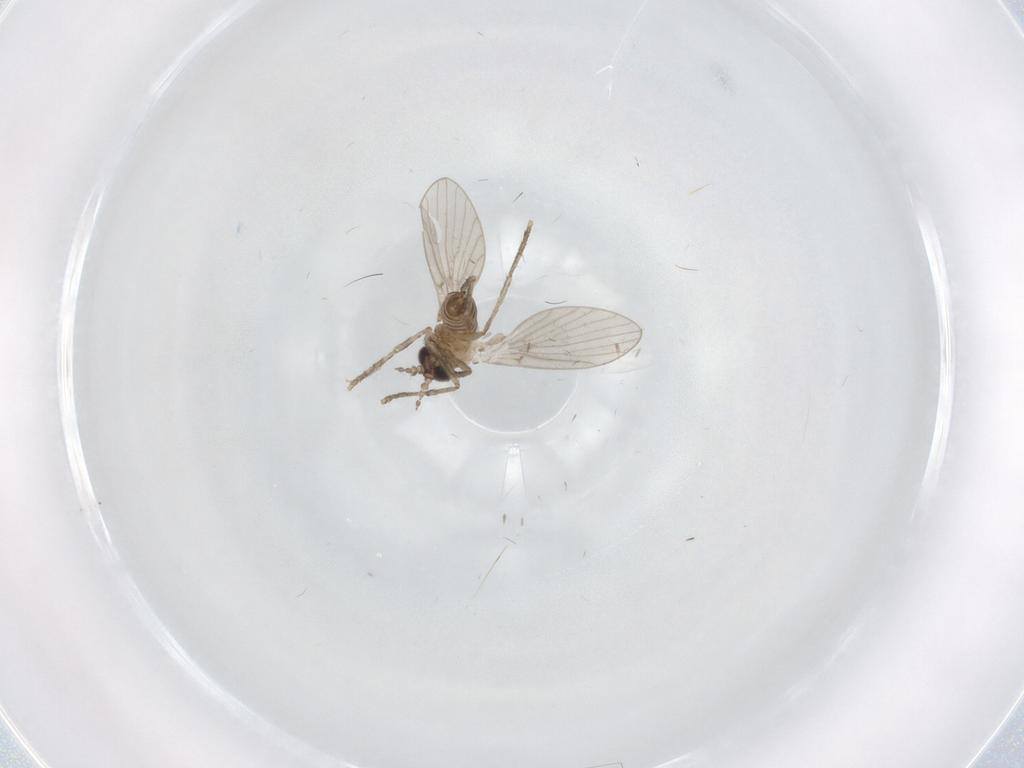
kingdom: Animalia
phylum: Arthropoda
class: Insecta
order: Diptera
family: Chironomidae
